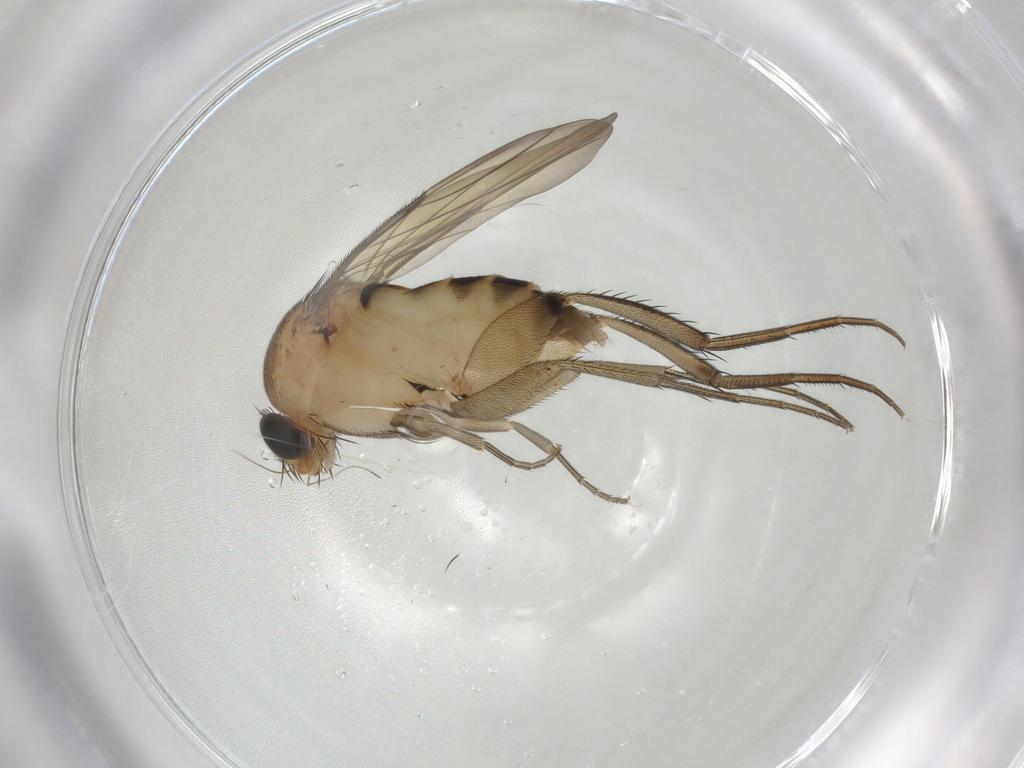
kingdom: Animalia
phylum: Arthropoda
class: Insecta
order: Diptera
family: Phoridae
